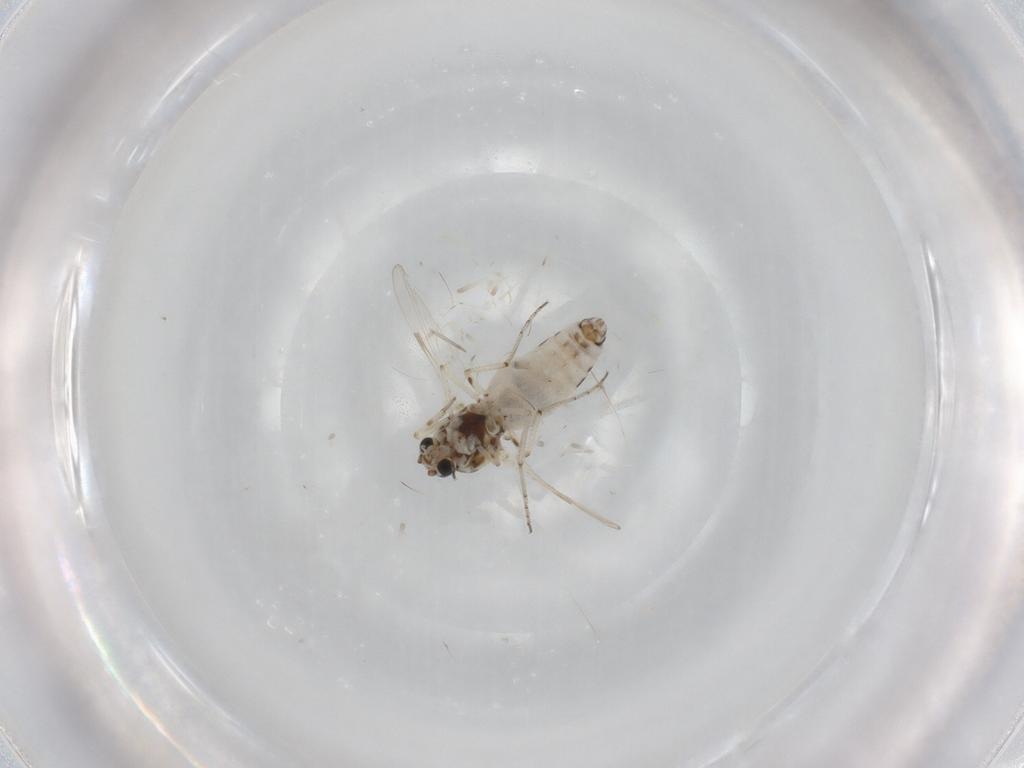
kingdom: Animalia
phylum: Arthropoda
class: Insecta
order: Diptera
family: Ceratopogonidae
